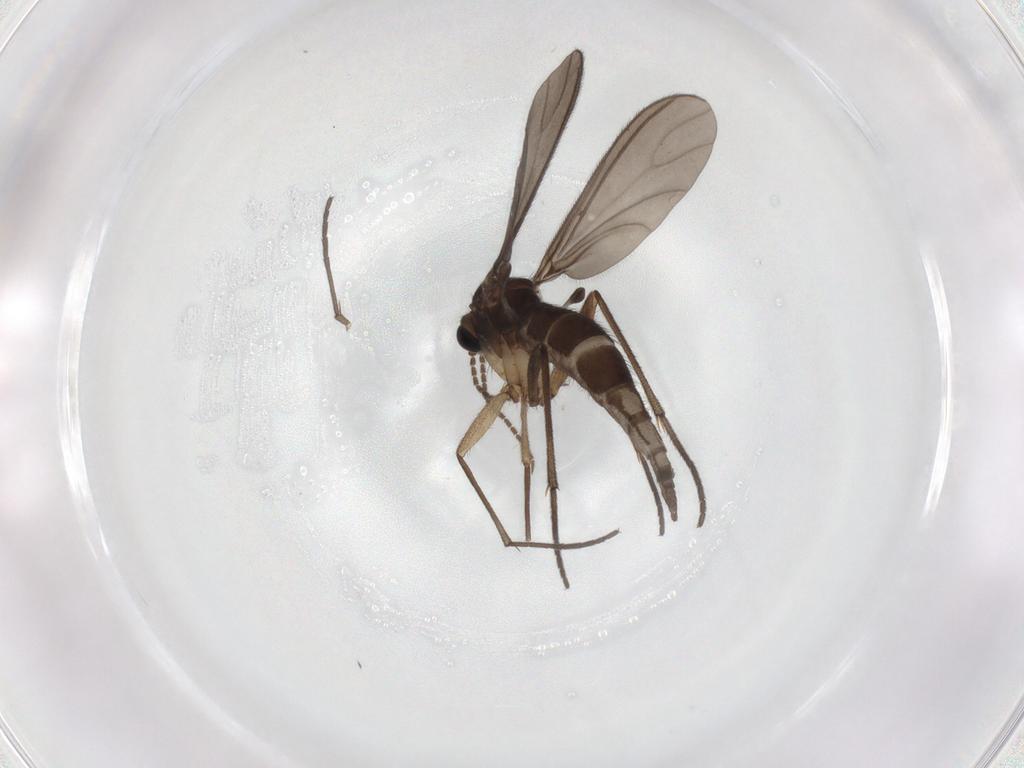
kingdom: Animalia
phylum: Arthropoda
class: Insecta
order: Diptera
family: Sciaridae
